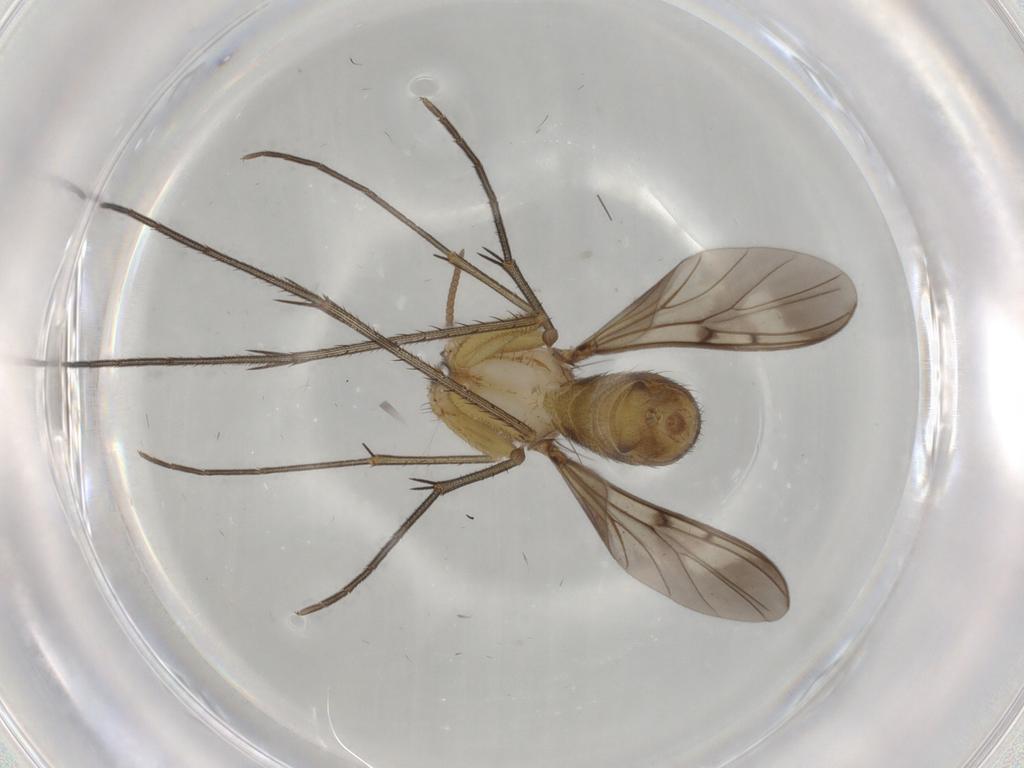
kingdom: Animalia
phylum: Arthropoda
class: Insecta
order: Diptera
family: Chironomidae
